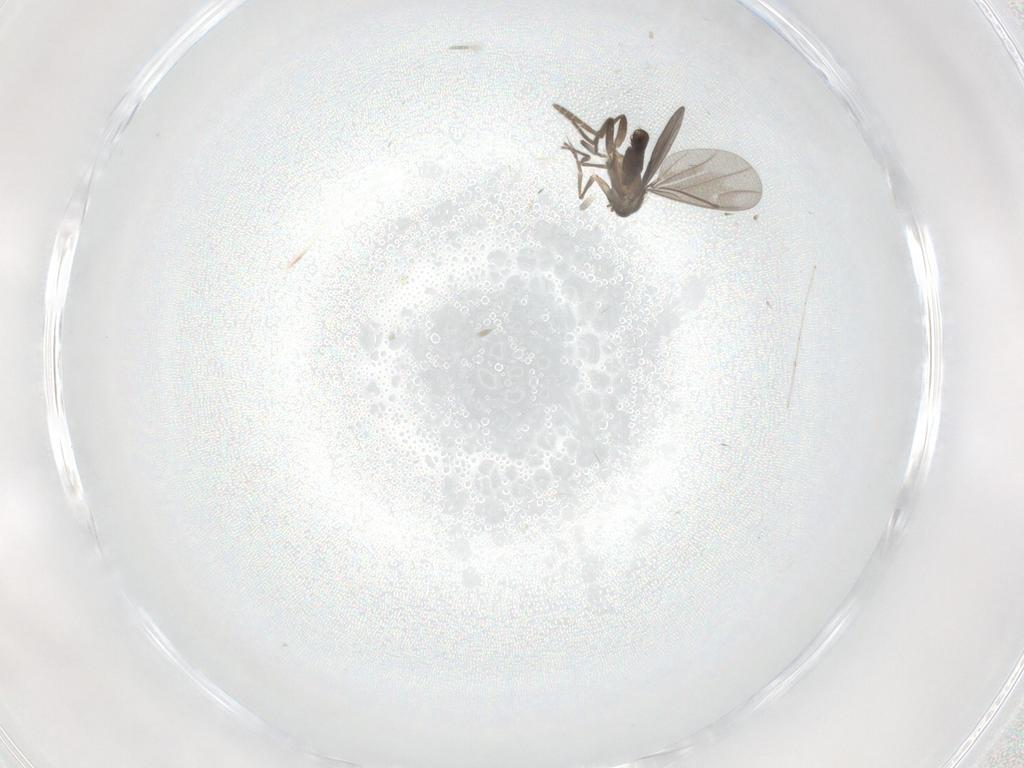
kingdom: Animalia
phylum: Arthropoda
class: Insecta
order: Diptera
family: Phoridae
